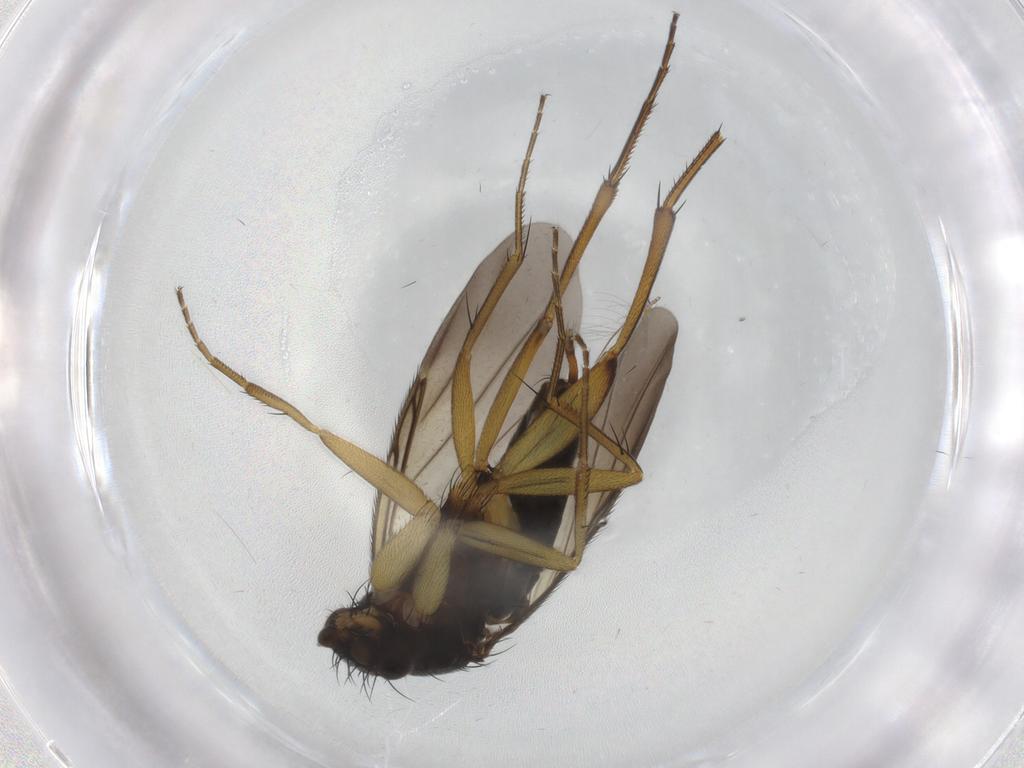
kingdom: Animalia
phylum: Arthropoda
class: Insecta
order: Diptera
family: Phoridae
